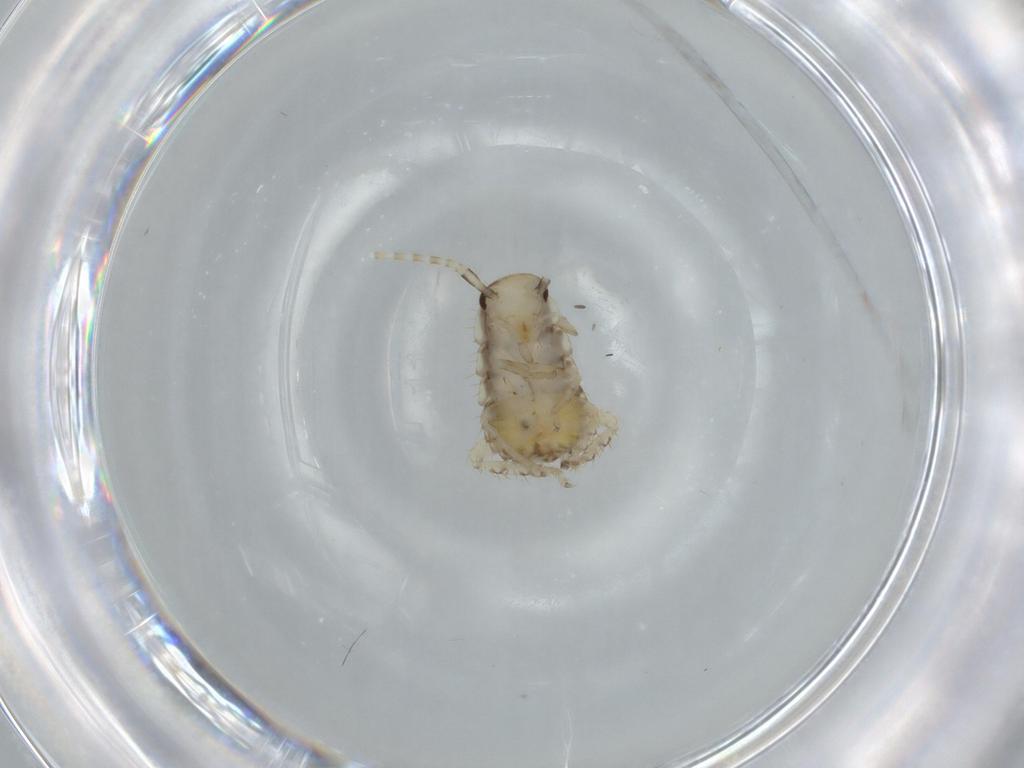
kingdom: Animalia
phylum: Arthropoda
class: Insecta
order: Blattodea
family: Ectobiidae
